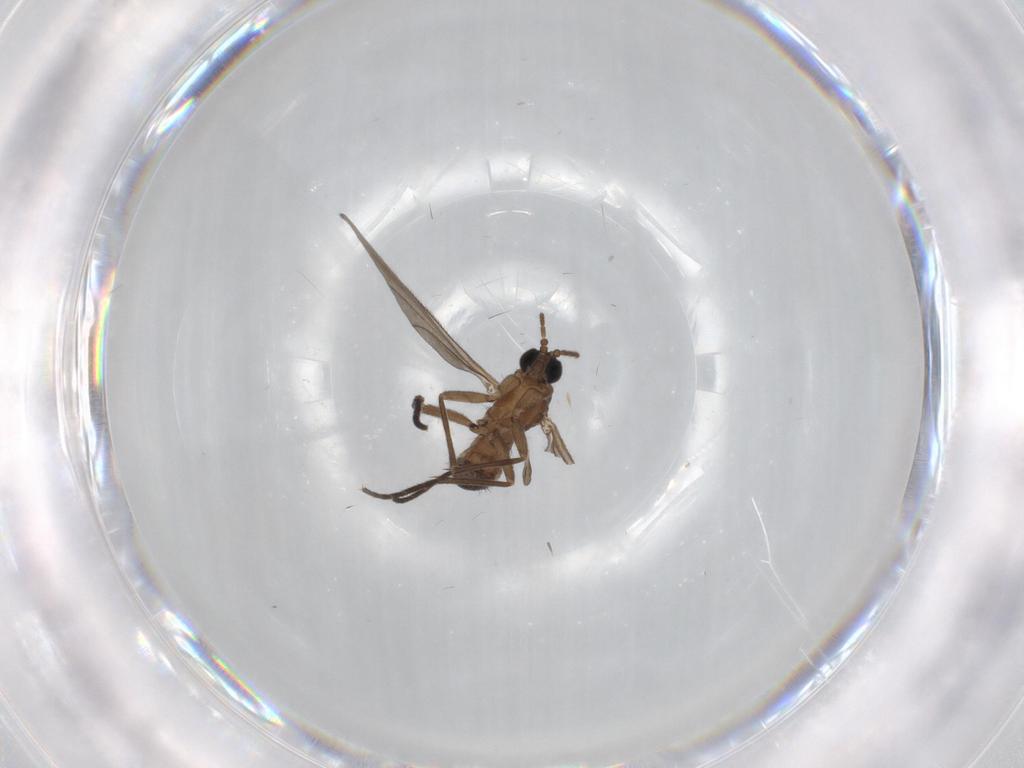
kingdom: Animalia
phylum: Arthropoda
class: Insecta
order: Diptera
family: Sciaridae
